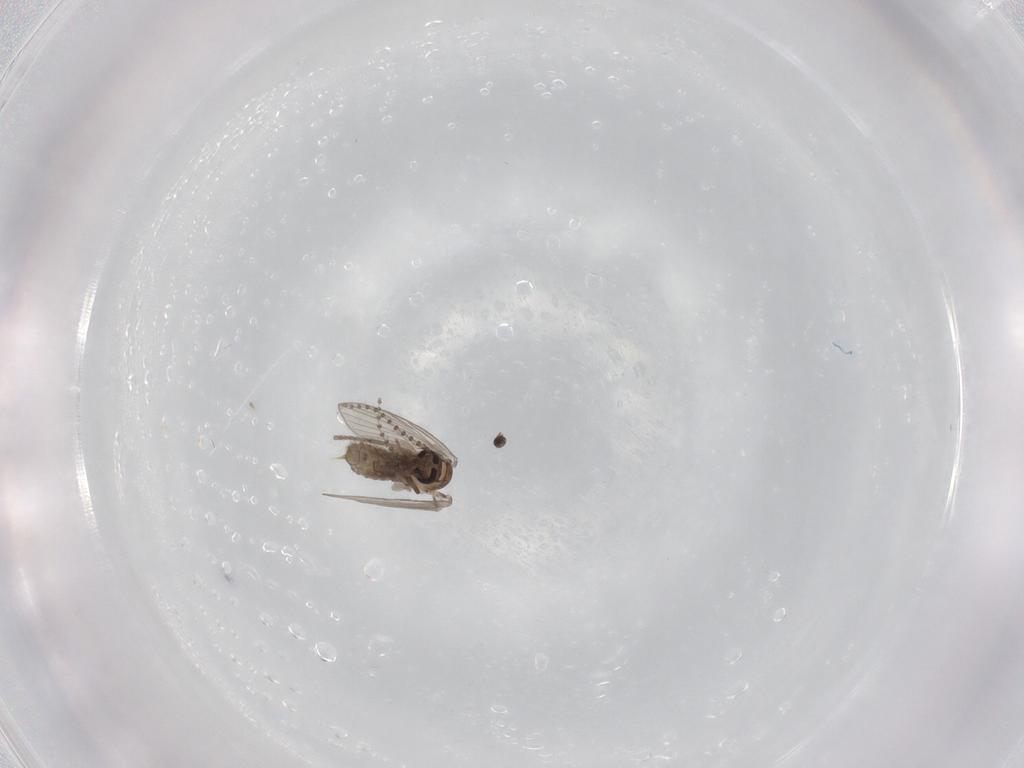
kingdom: Animalia
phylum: Arthropoda
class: Insecta
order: Diptera
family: Psychodidae
